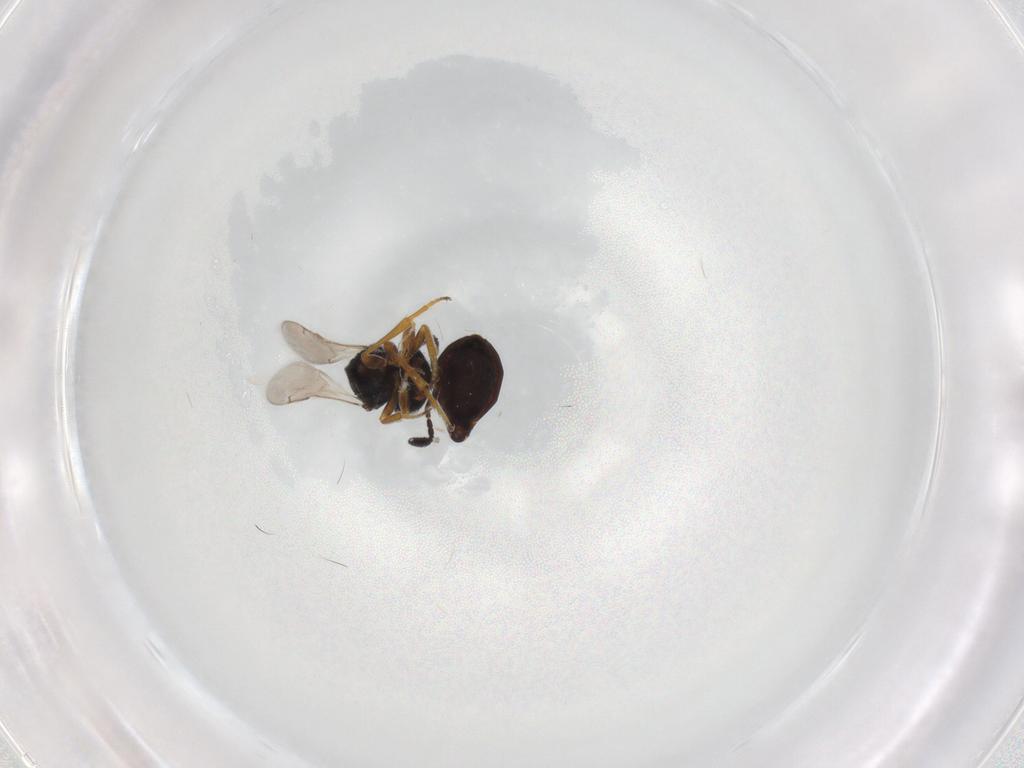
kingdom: Animalia
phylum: Arthropoda
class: Insecta
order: Hymenoptera
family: Scelionidae
